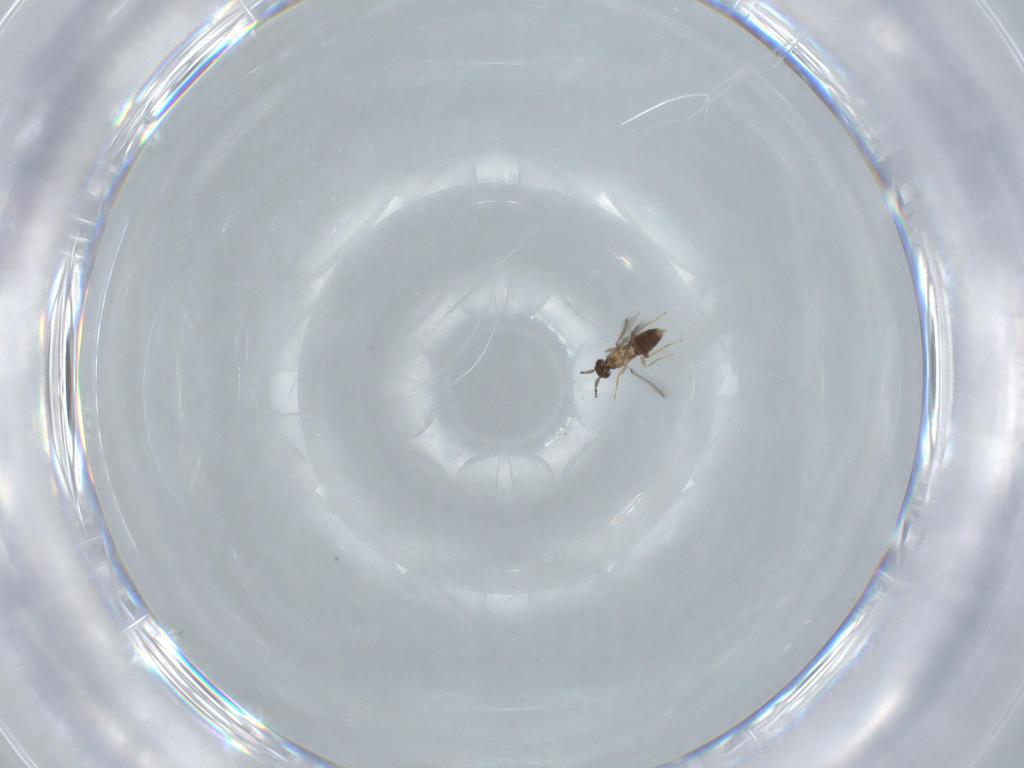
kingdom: Animalia
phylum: Arthropoda
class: Insecta
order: Hymenoptera
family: Mymaridae
